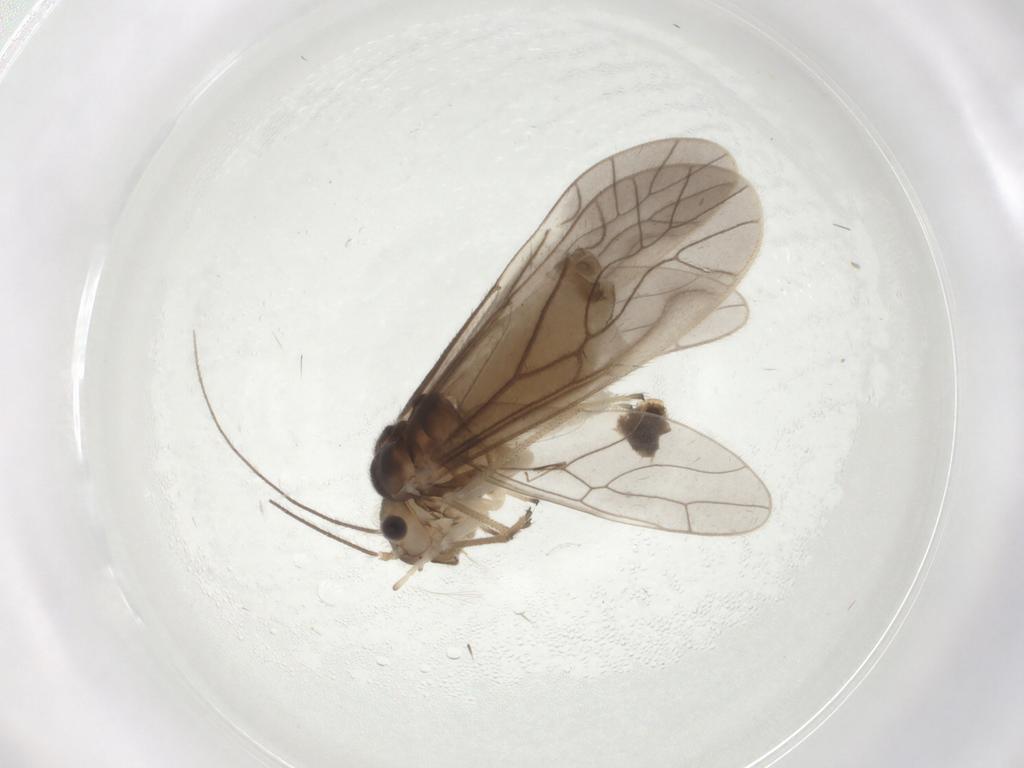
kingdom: Animalia
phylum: Arthropoda
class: Insecta
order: Psocodea
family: Caeciliusidae
